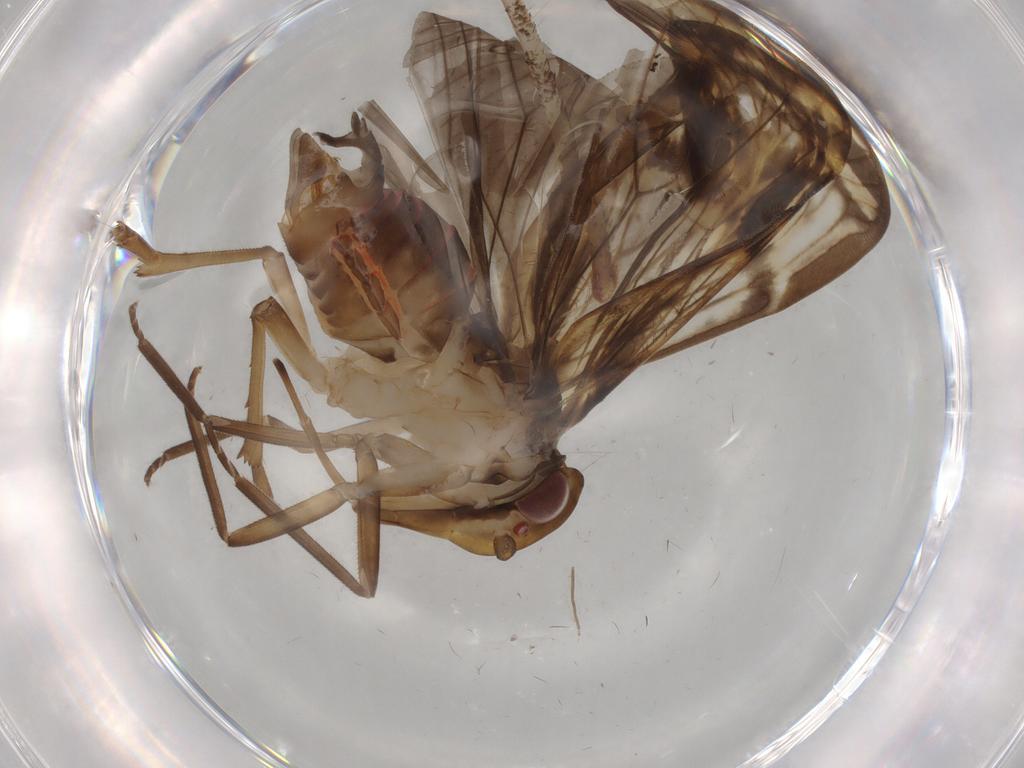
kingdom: Animalia
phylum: Arthropoda
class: Insecta
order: Hemiptera
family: Cixiidae
